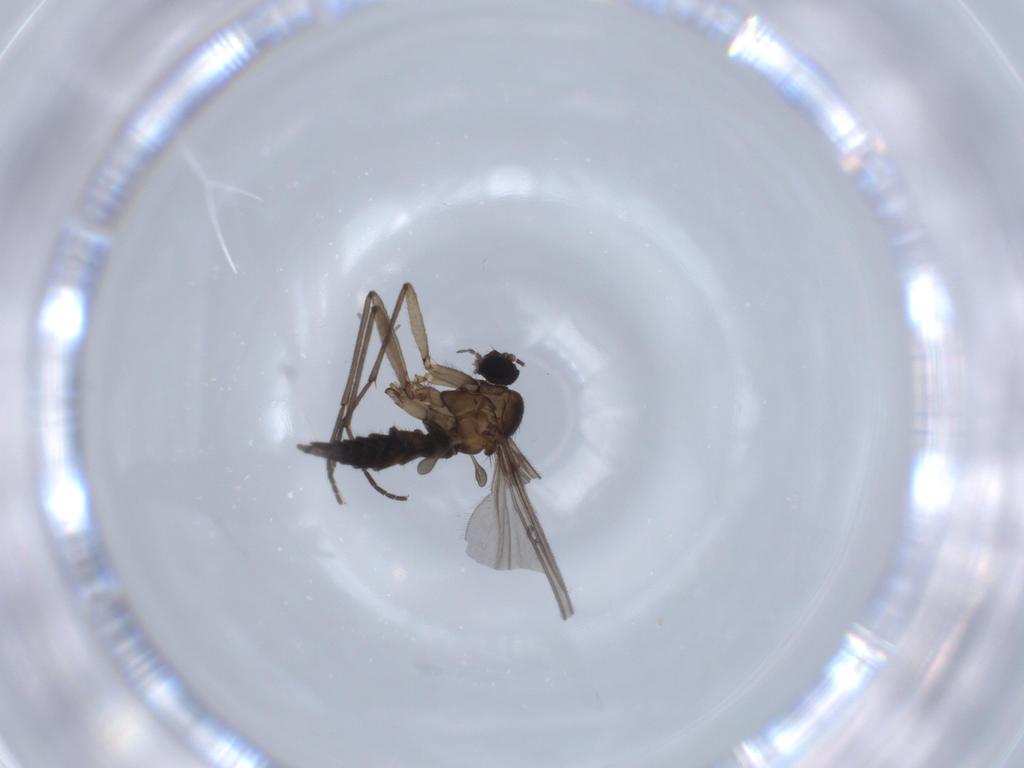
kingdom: Animalia
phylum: Arthropoda
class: Insecta
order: Diptera
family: Sciaridae
